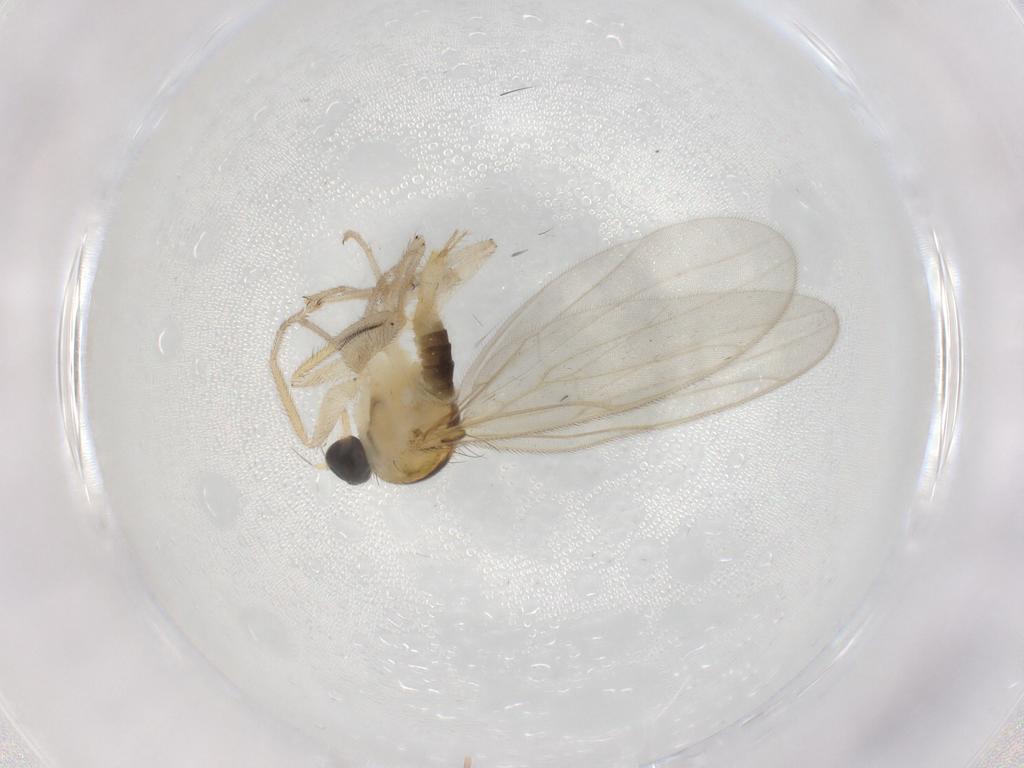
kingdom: Animalia
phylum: Arthropoda
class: Insecta
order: Diptera
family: Hybotidae
